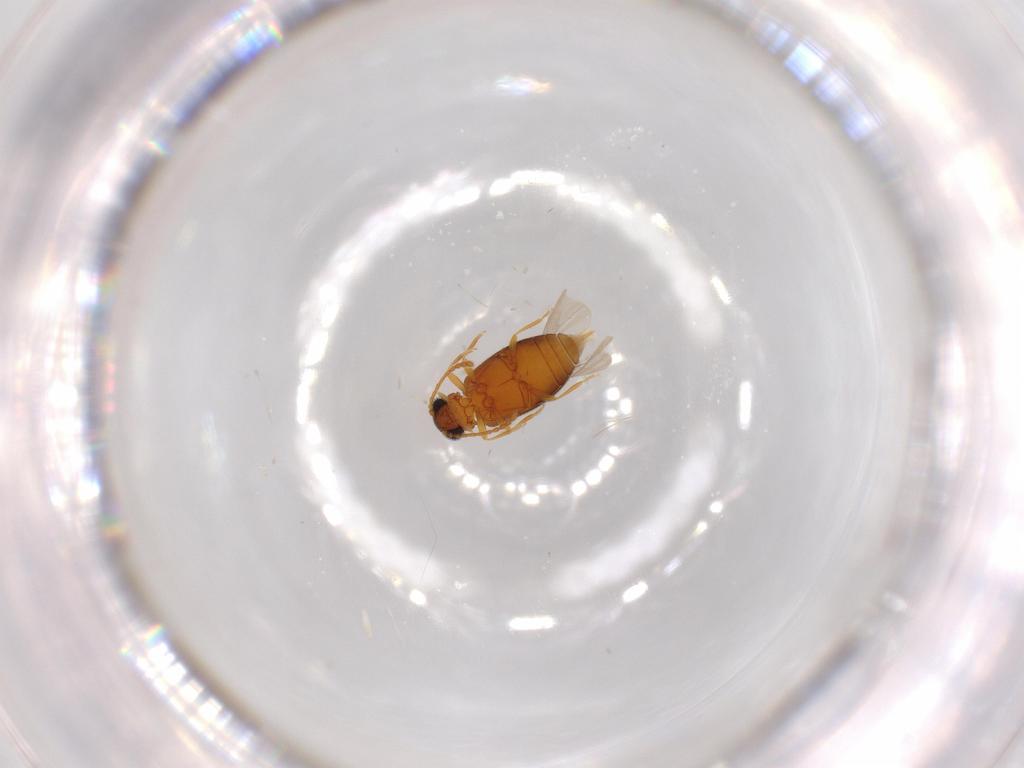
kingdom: Animalia
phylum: Arthropoda
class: Insecta
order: Coleoptera
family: Aderidae
